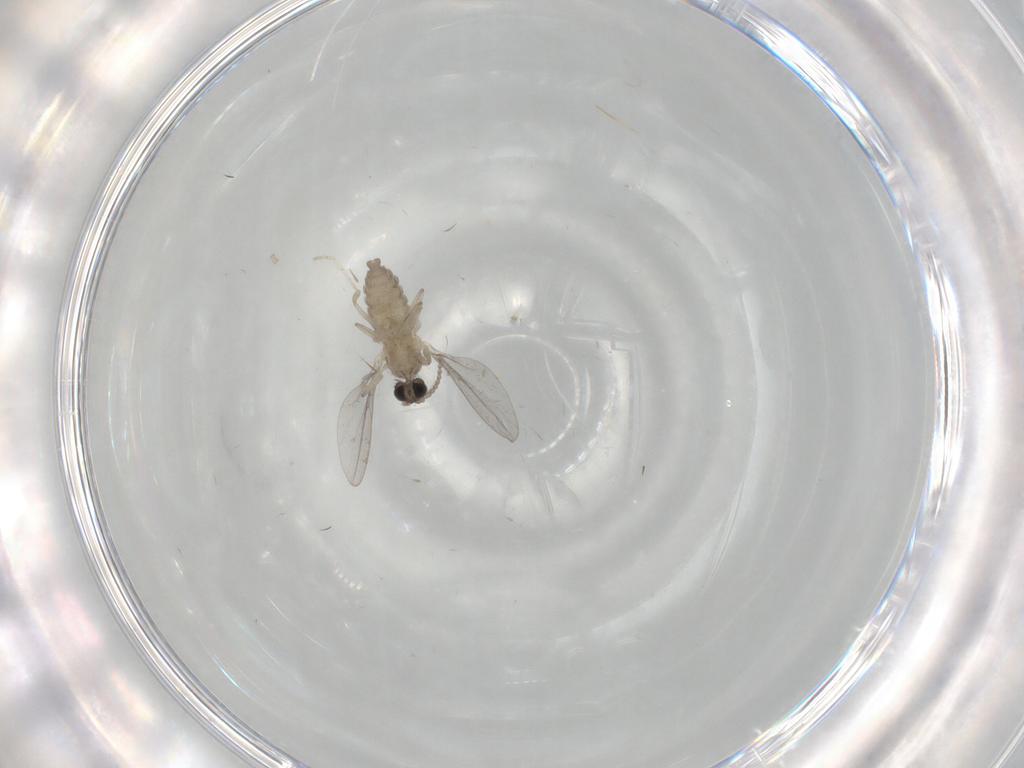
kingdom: Animalia
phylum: Arthropoda
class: Insecta
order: Diptera
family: Cecidomyiidae
